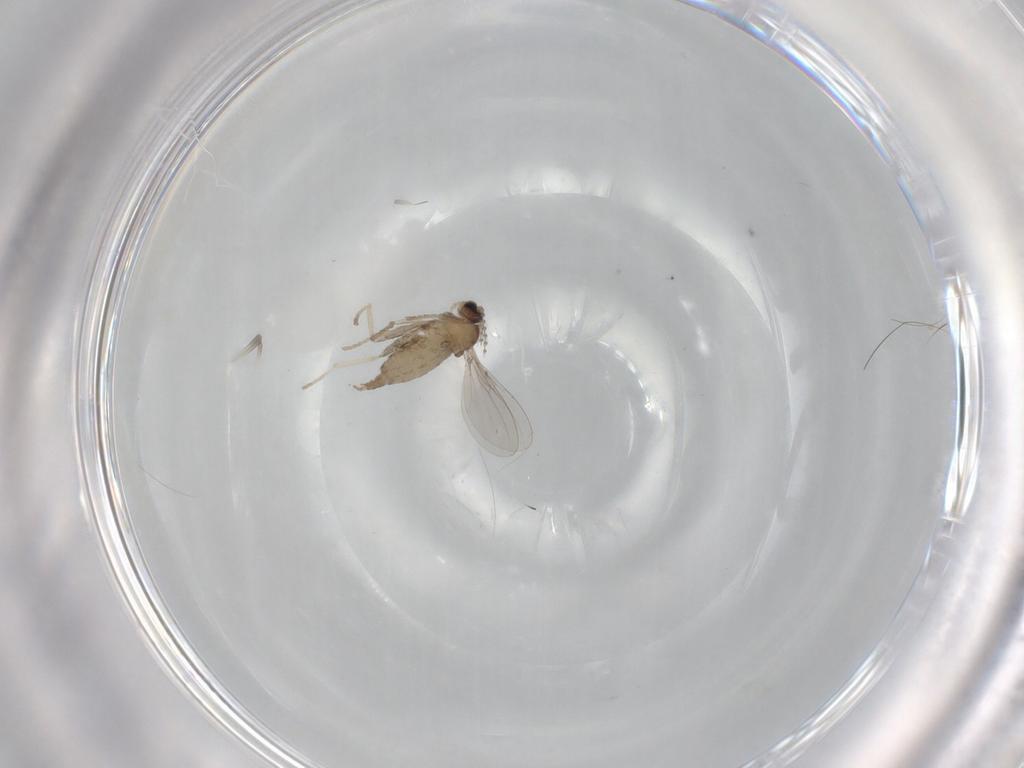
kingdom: Animalia
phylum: Arthropoda
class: Insecta
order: Diptera
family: Cecidomyiidae
